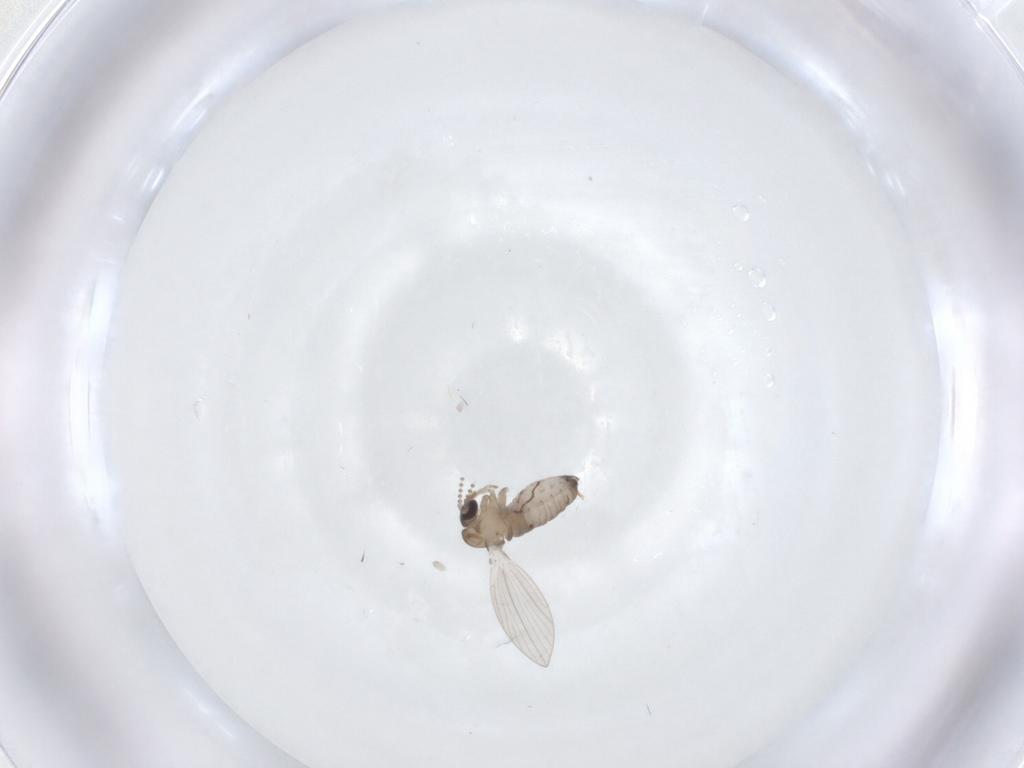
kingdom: Animalia
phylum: Arthropoda
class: Insecta
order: Diptera
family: Psychodidae
